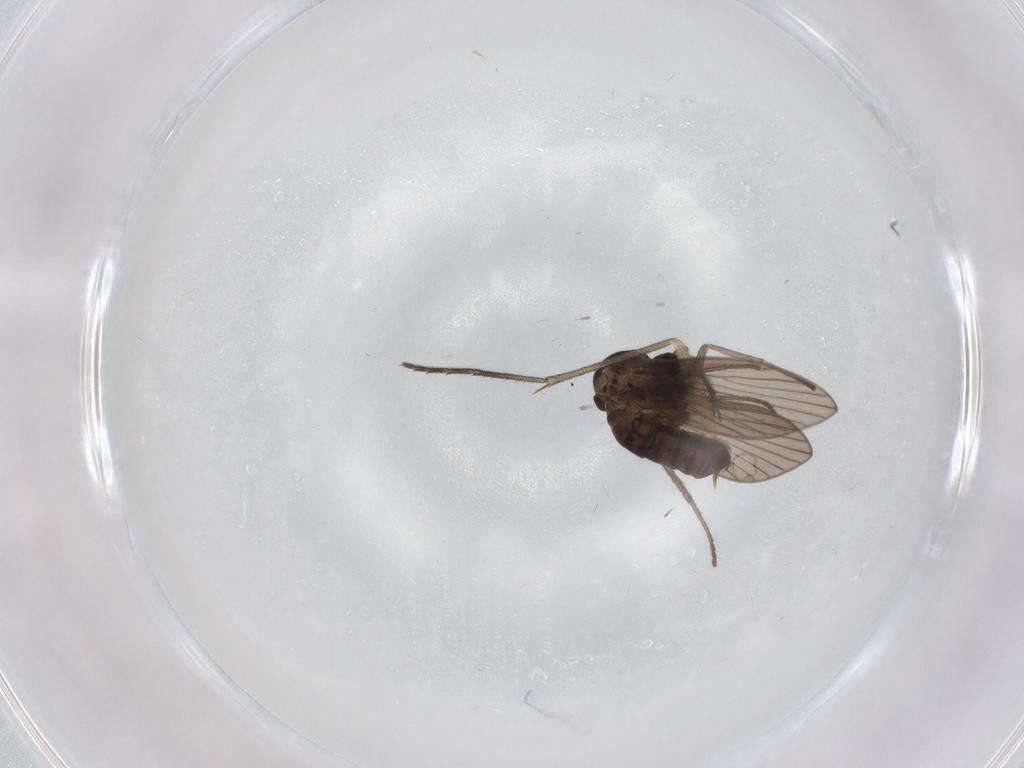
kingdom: Animalia
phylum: Arthropoda
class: Insecta
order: Diptera
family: Psychodidae
